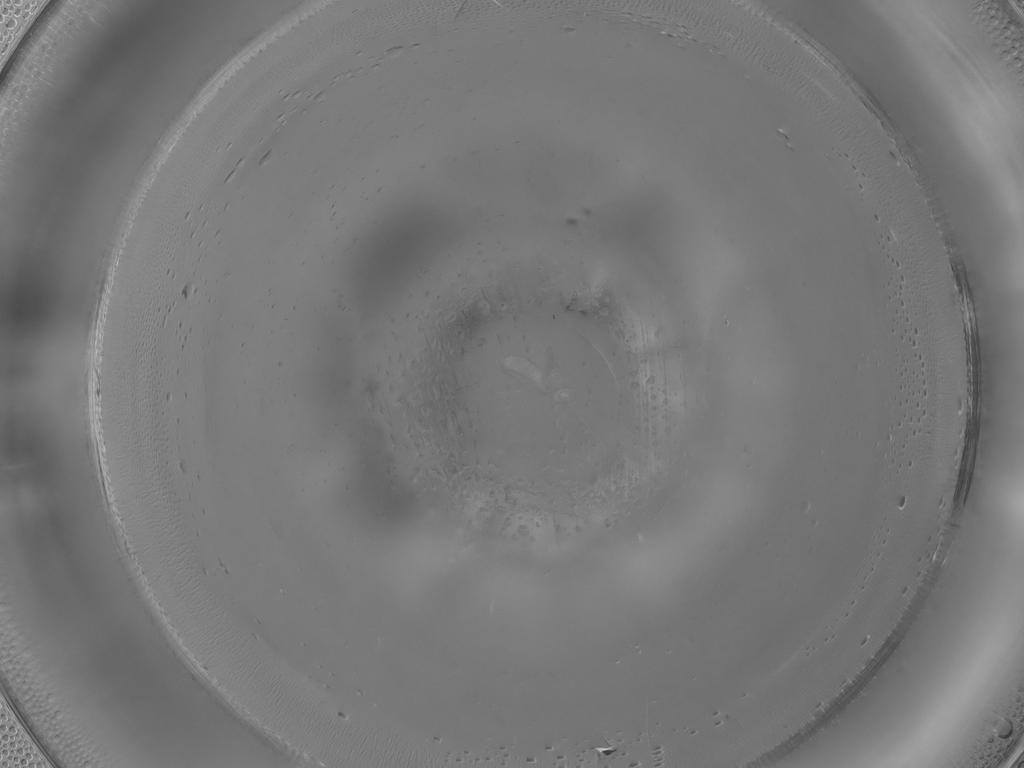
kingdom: Animalia
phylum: Arthropoda
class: Insecta
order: Diptera
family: Cecidomyiidae
